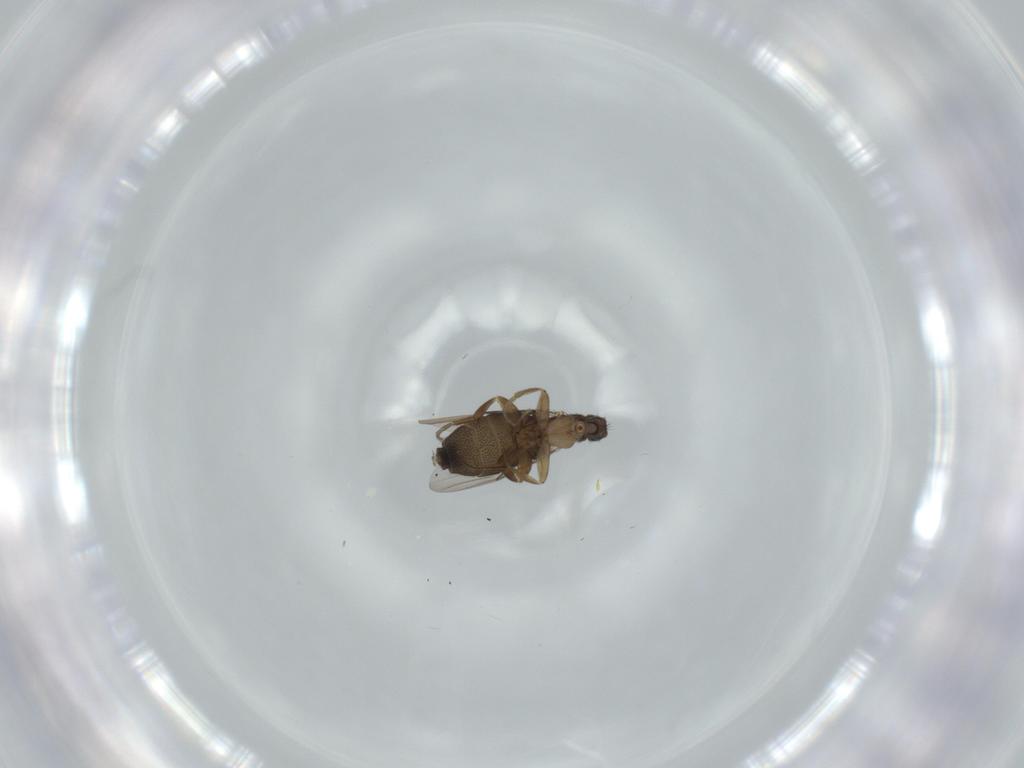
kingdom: Animalia
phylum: Arthropoda
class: Insecta
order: Diptera
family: Phoridae
